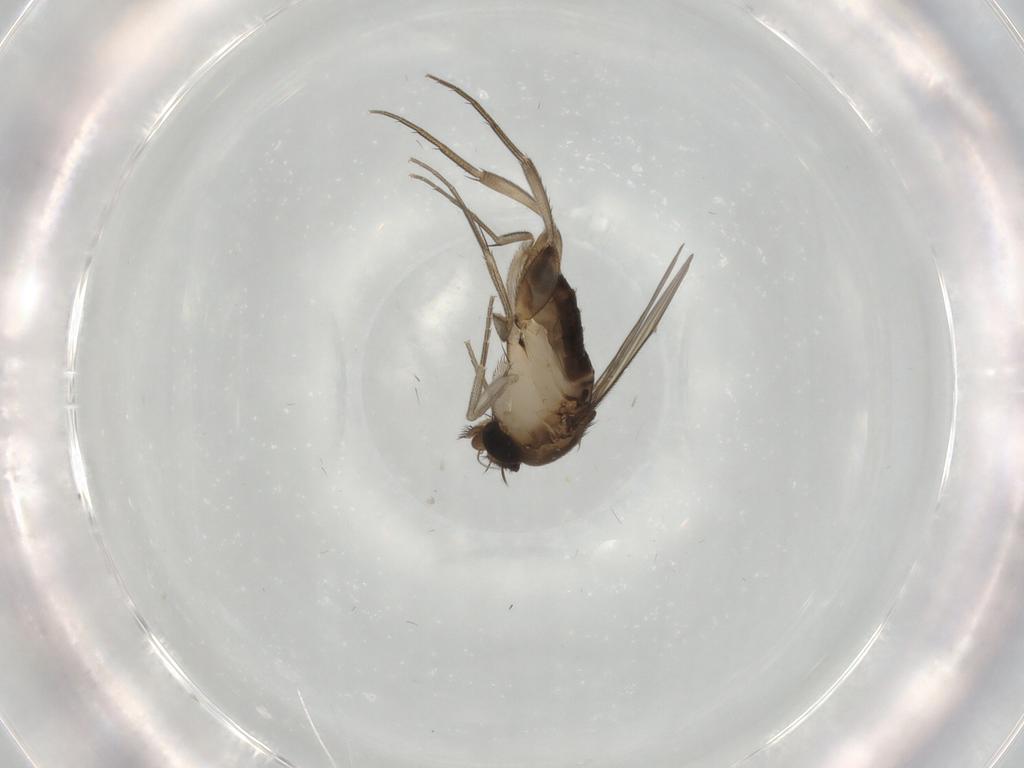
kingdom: Animalia
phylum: Arthropoda
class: Insecta
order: Diptera
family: Phoridae
